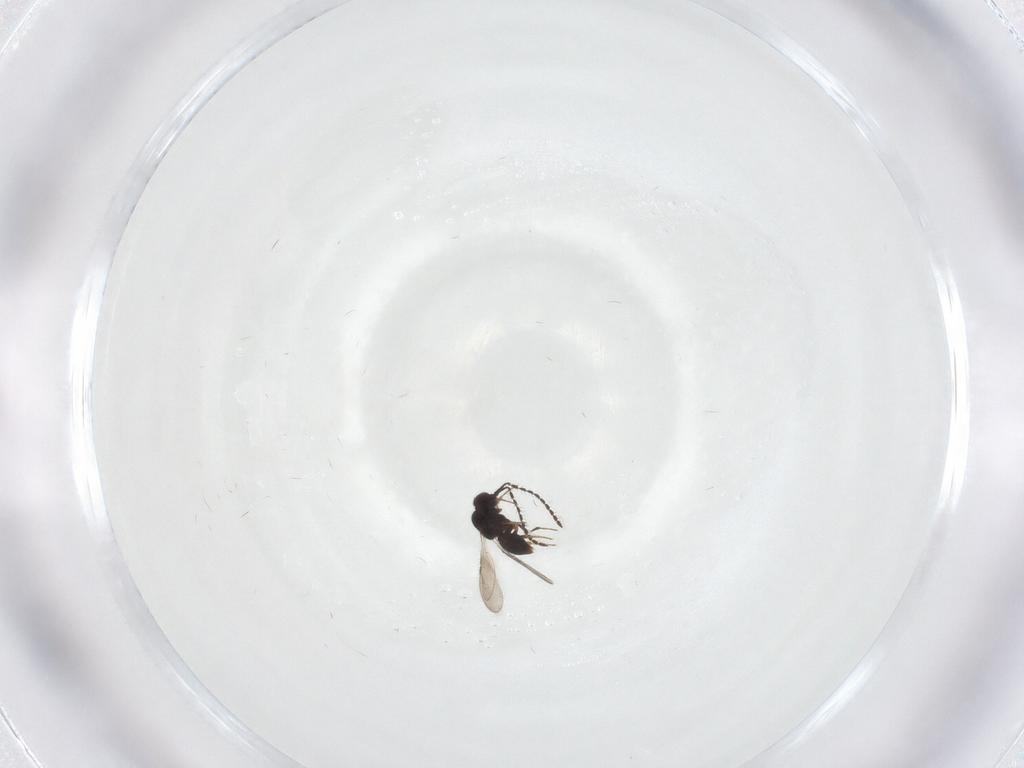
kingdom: Animalia
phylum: Arthropoda
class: Insecta
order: Hymenoptera
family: Ceraphronidae
